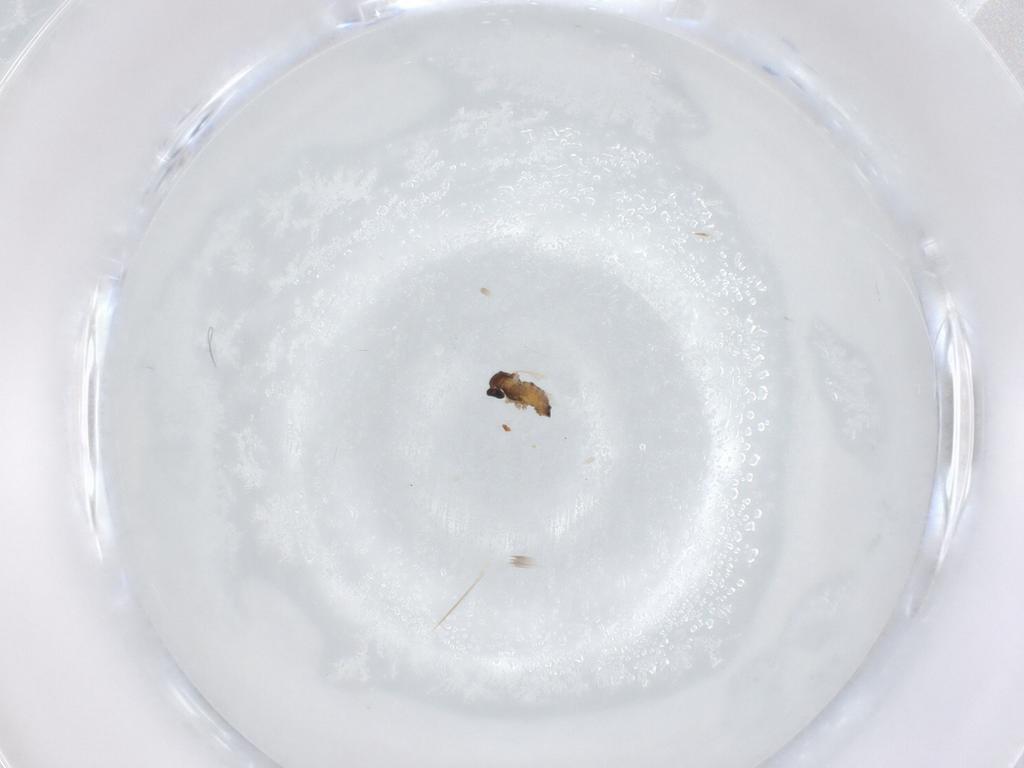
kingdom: Animalia
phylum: Arthropoda
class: Insecta
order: Diptera
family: Cecidomyiidae
